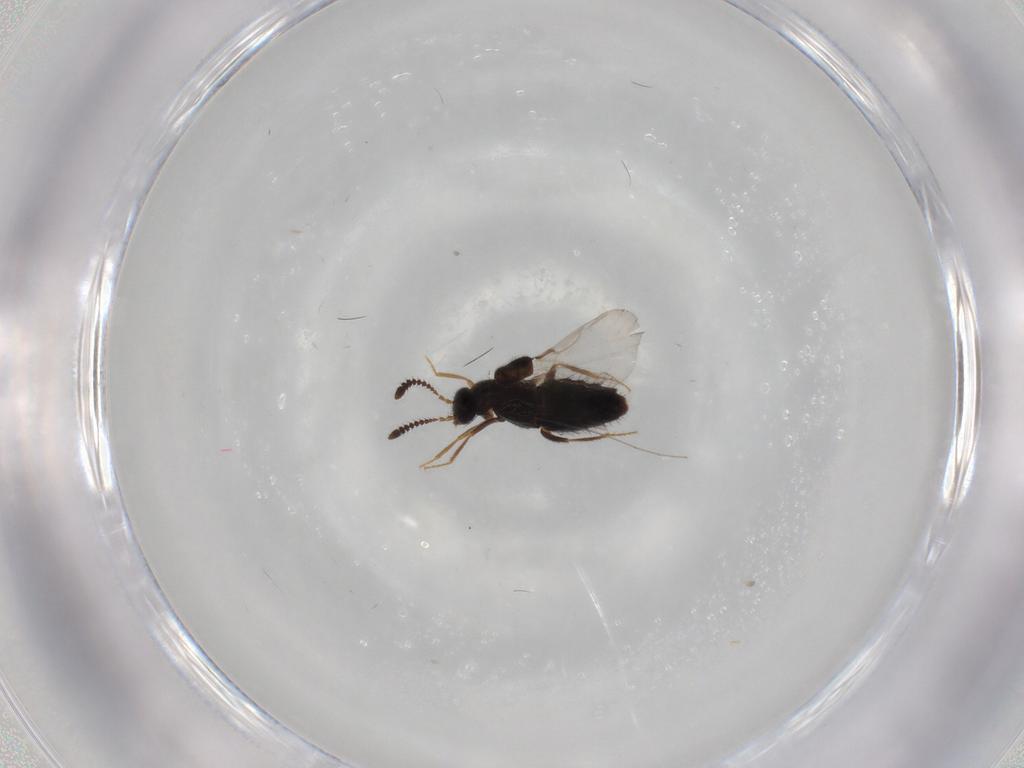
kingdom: Animalia
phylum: Arthropoda
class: Insecta
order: Coleoptera
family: Staphylinidae
